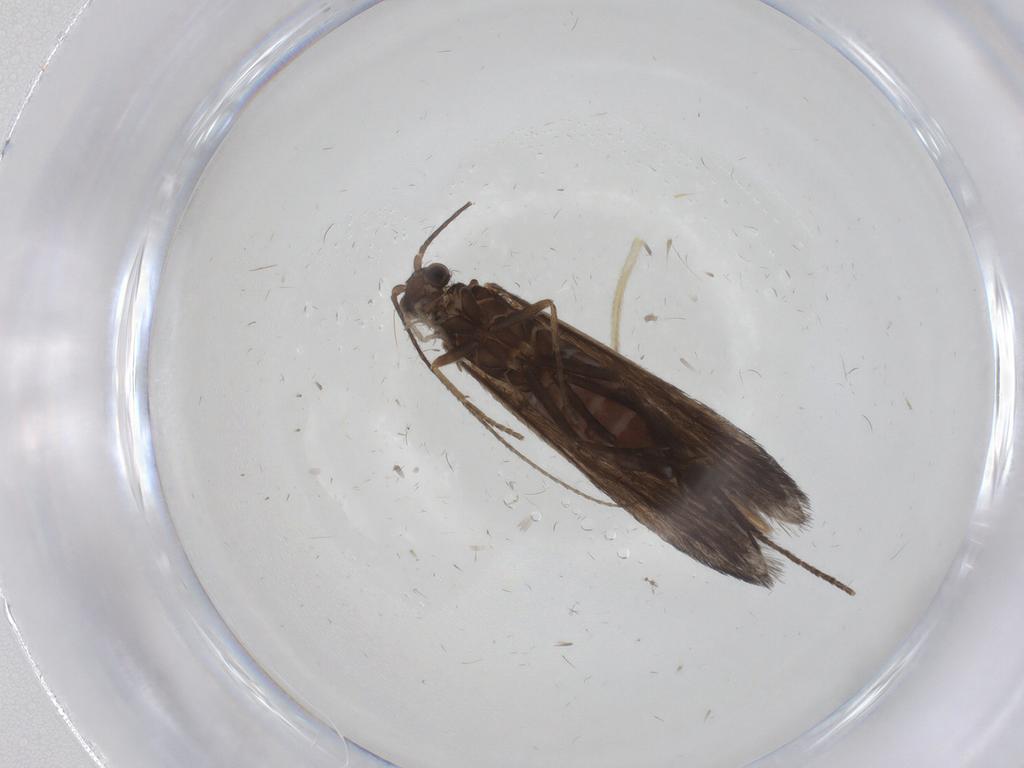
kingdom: Animalia
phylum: Arthropoda
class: Insecta
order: Trichoptera
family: Xiphocentronidae
